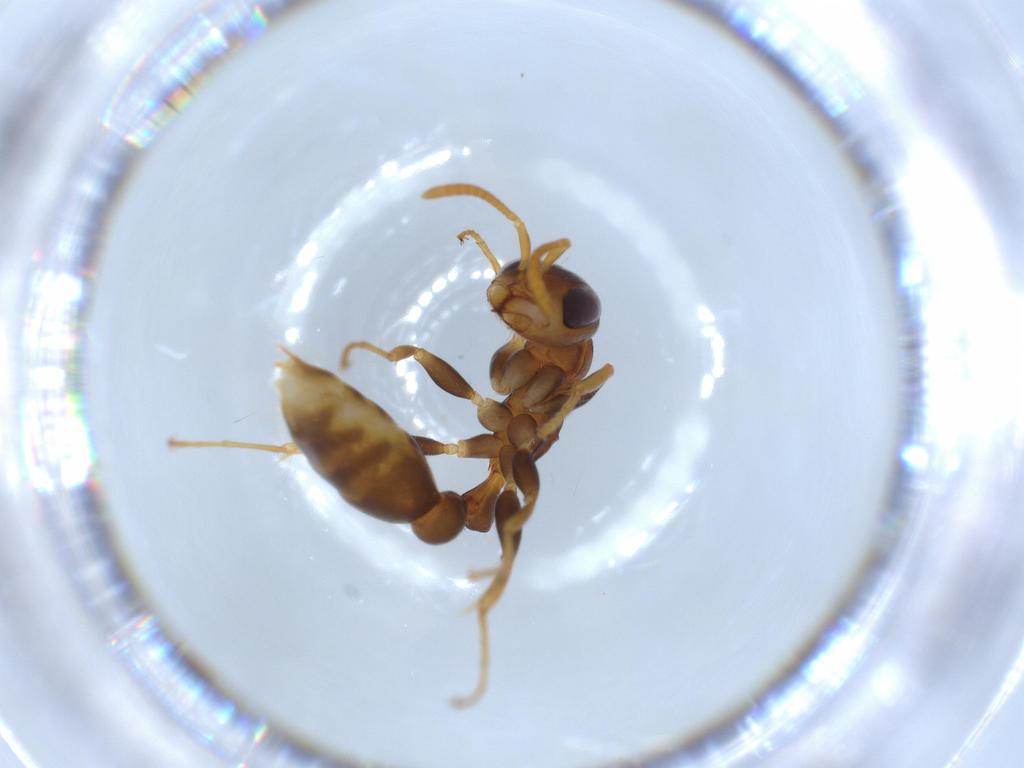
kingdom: Animalia
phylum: Arthropoda
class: Insecta
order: Hymenoptera
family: Formicidae
